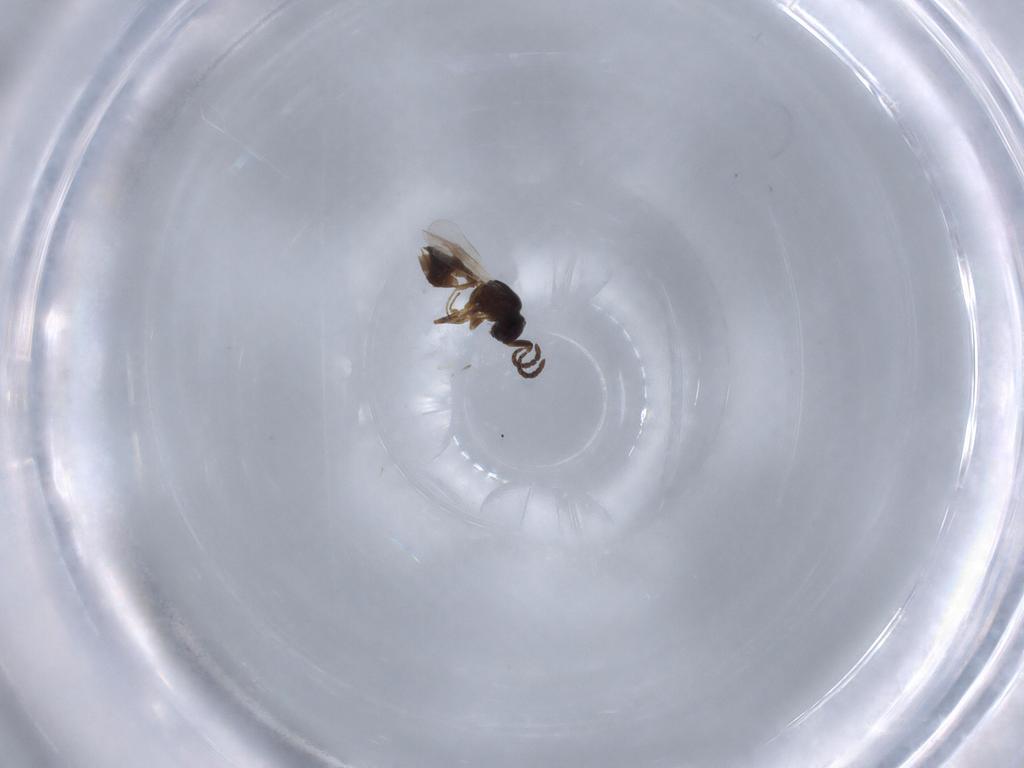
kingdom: Animalia
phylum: Arthropoda
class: Insecta
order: Hymenoptera
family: Megaspilidae
